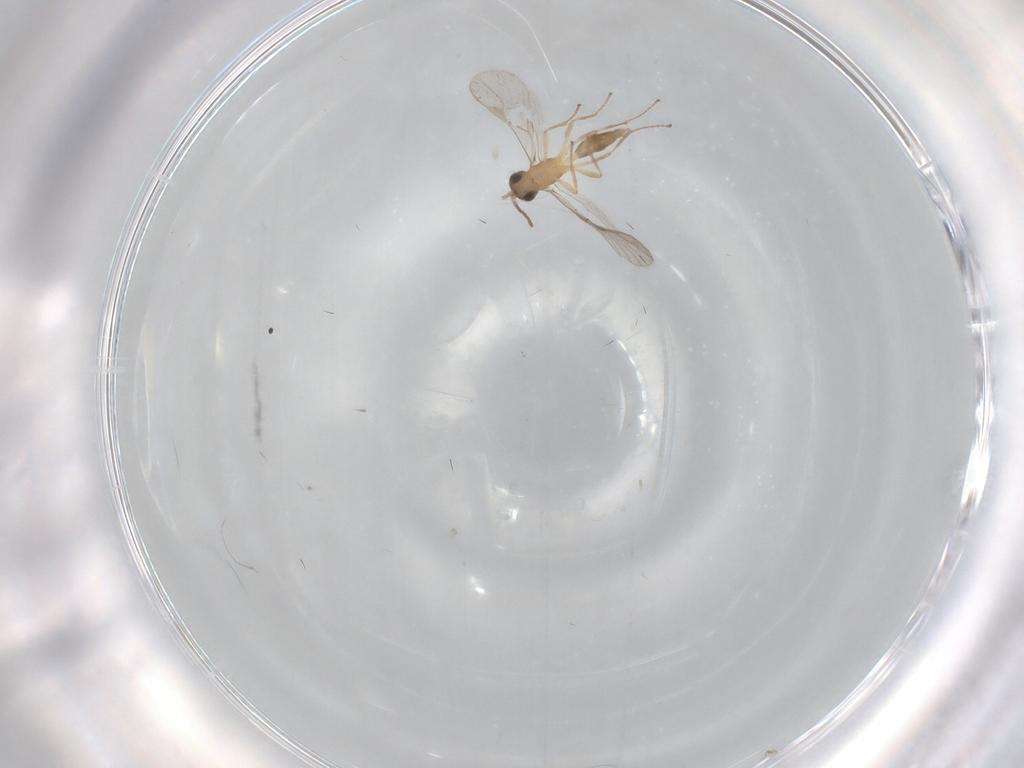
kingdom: Animalia
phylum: Arthropoda
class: Insecta
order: Hymenoptera
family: Braconidae
